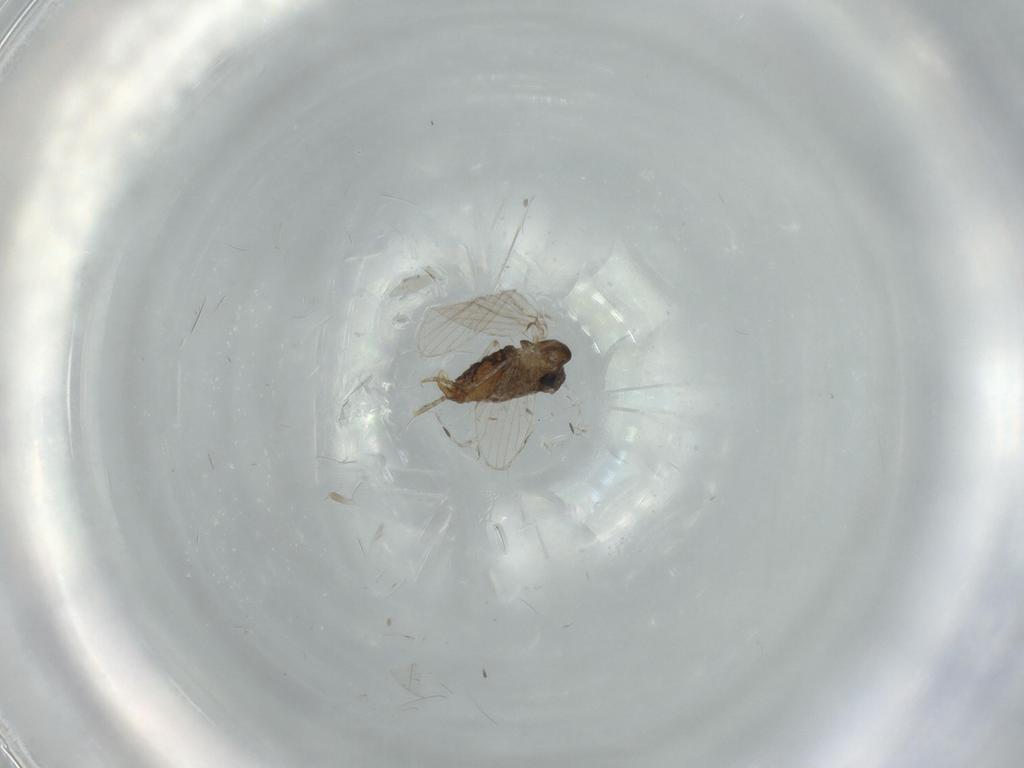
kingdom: Animalia
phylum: Arthropoda
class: Insecta
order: Diptera
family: Psychodidae
